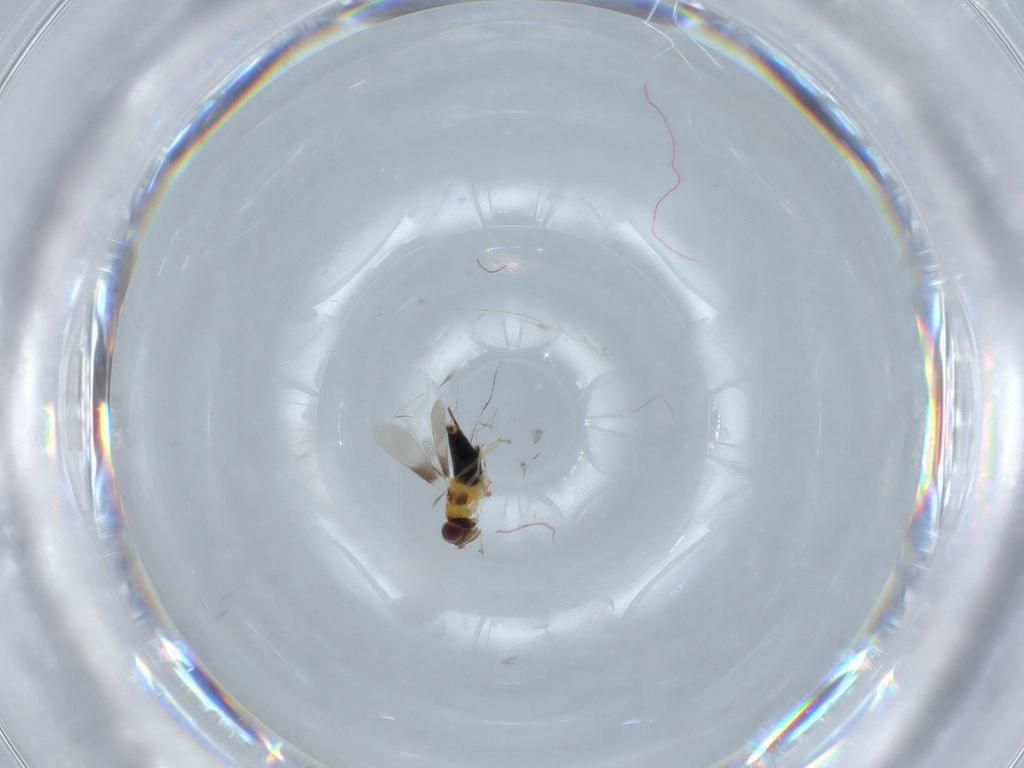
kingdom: Animalia
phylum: Arthropoda
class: Insecta
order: Hymenoptera
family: Aphelinidae
